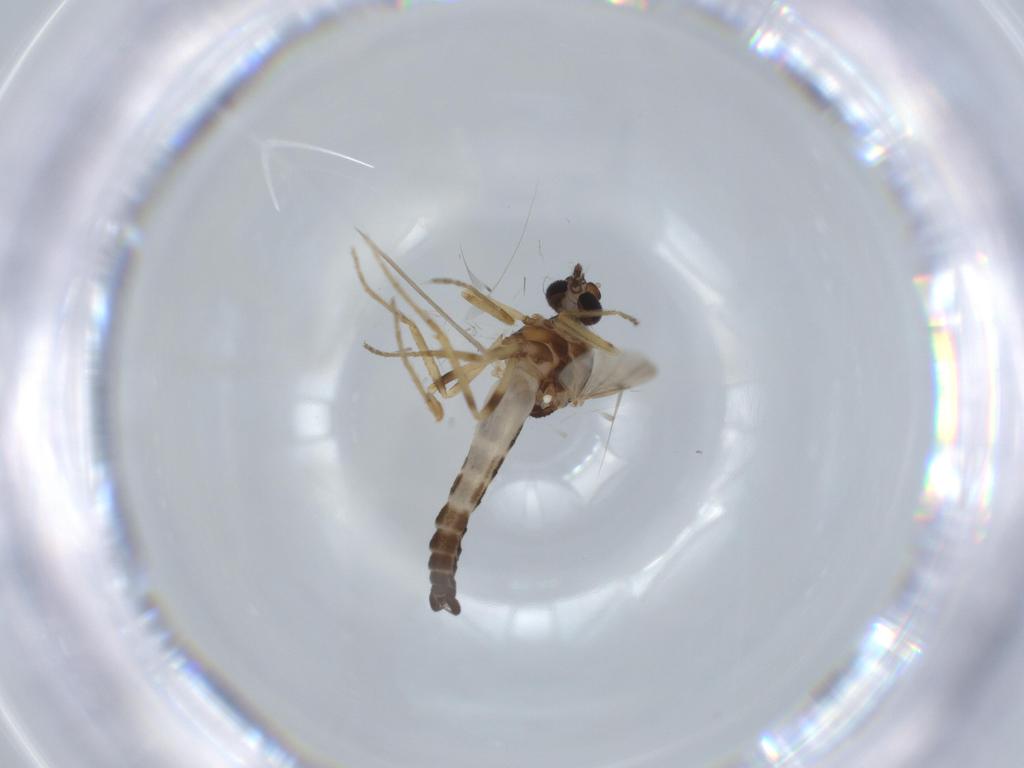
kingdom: Animalia
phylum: Arthropoda
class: Insecta
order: Diptera
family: Ceratopogonidae
